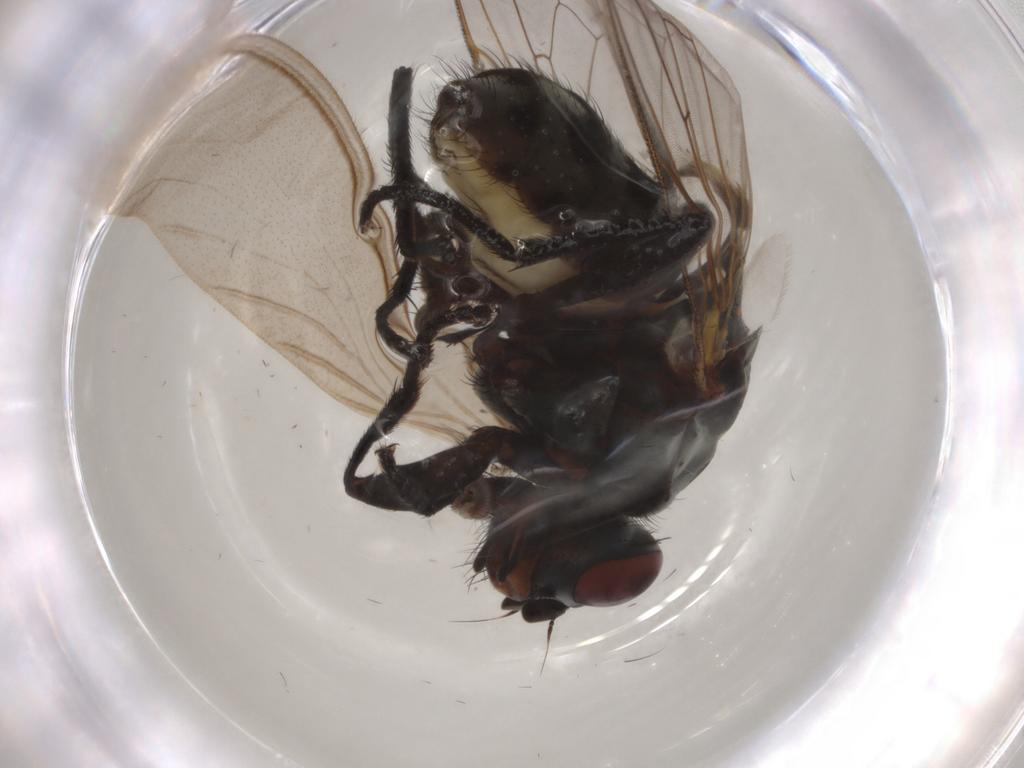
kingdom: Animalia
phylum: Arthropoda
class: Insecta
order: Diptera
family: Anthomyiidae
